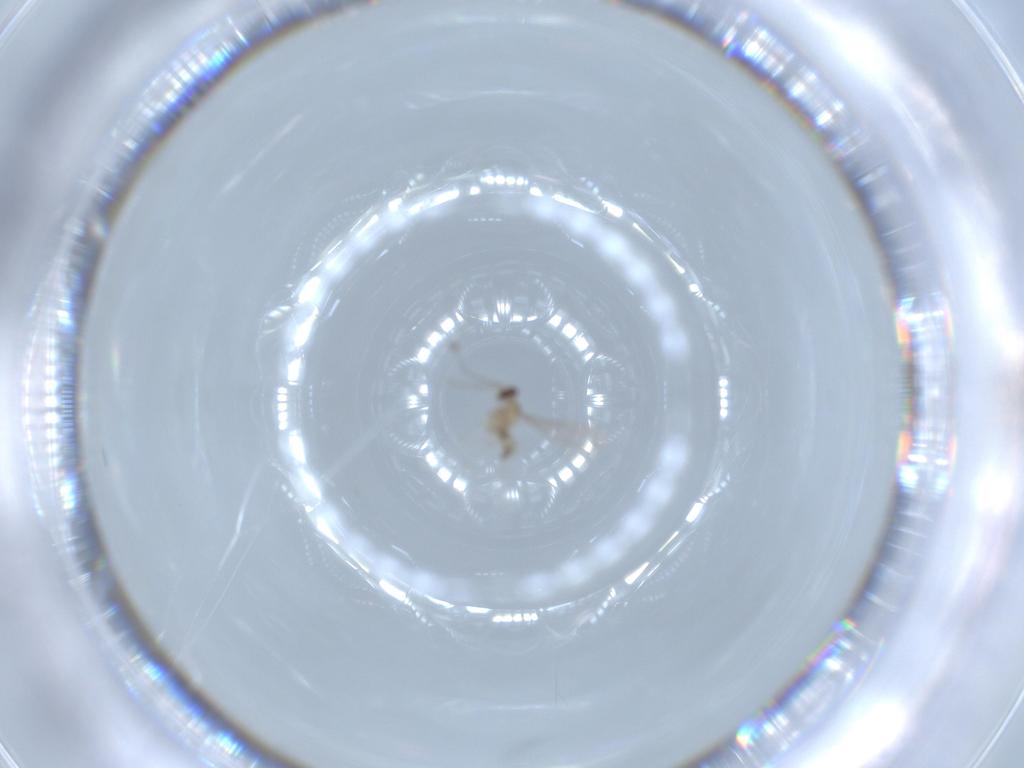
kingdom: Animalia
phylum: Arthropoda
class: Insecta
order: Diptera
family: Cecidomyiidae
